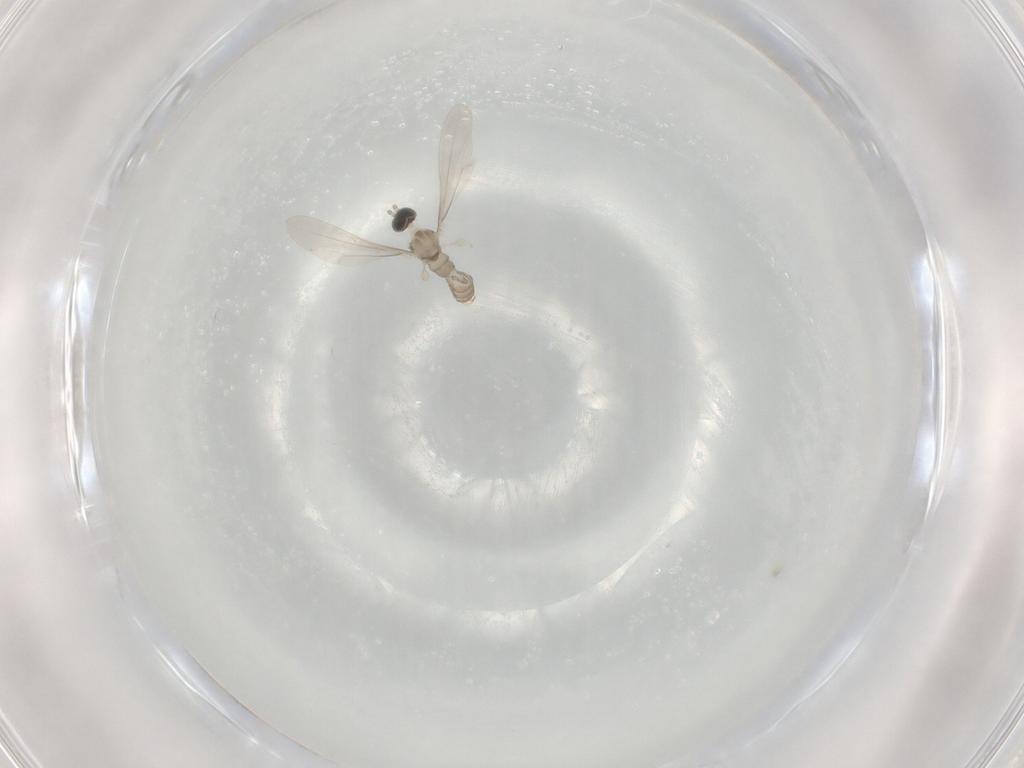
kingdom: Animalia
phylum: Arthropoda
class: Insecta
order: Diptera
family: Cecidomyiidae
